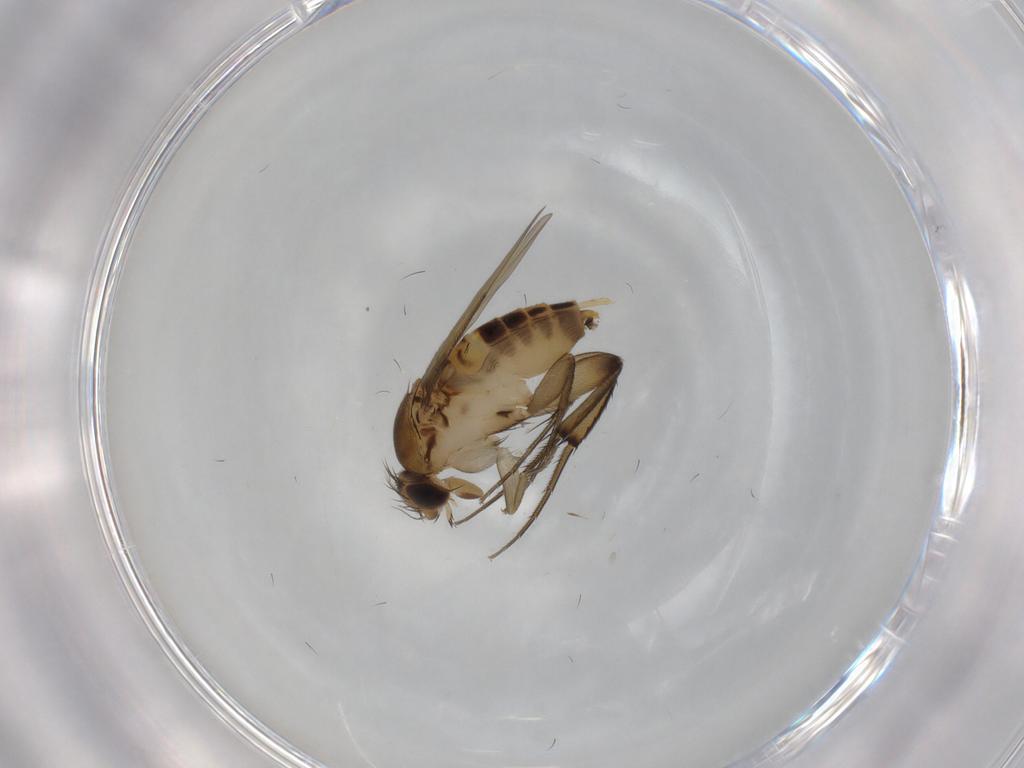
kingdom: Animalia
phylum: Arthropoda
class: Insecta
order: Diptera
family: Phoridae
